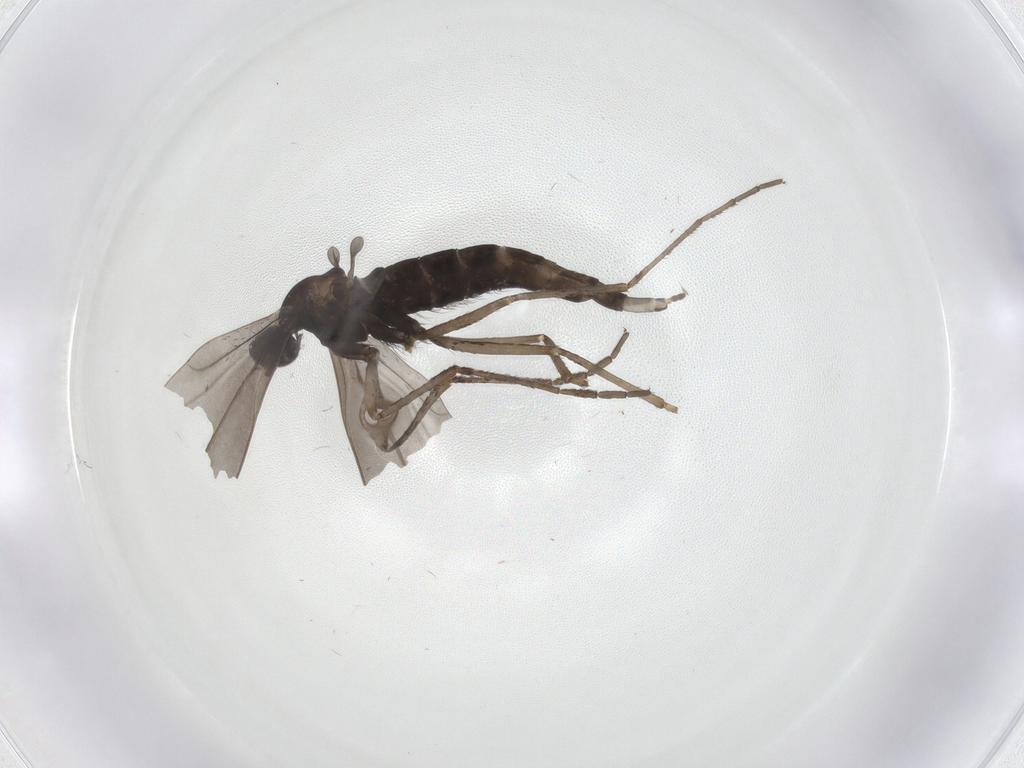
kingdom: Animalia
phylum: Arthropoda
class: Insecta
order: Diptera
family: Cecidomyiidae
